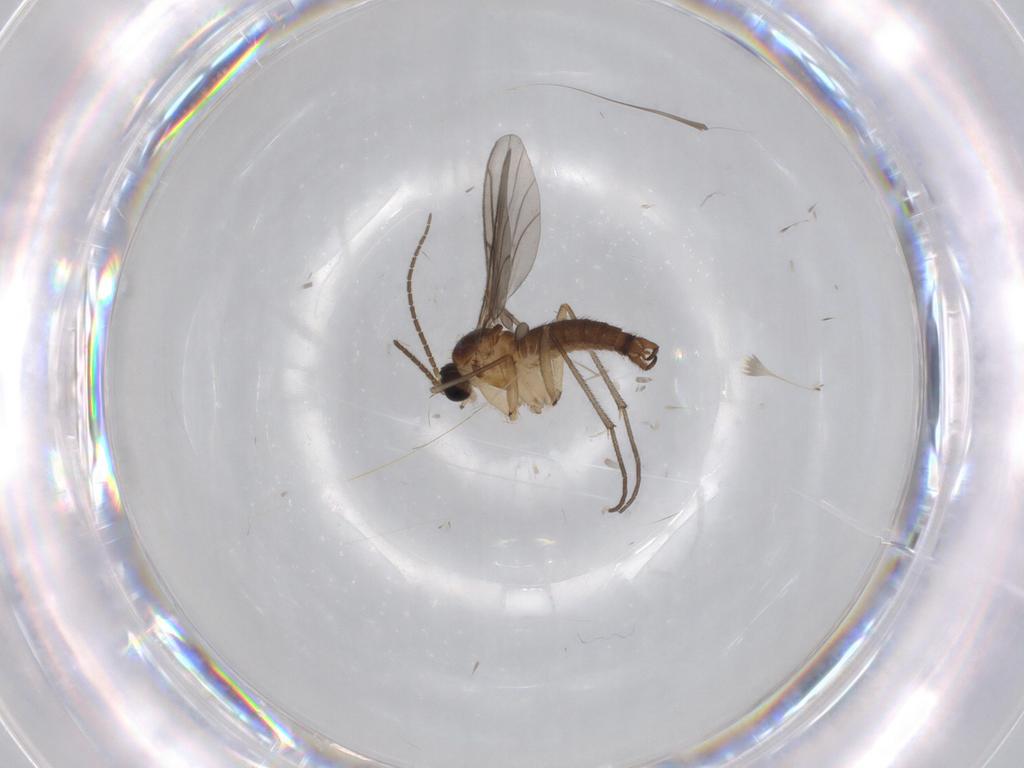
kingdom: Animalia
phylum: Arthropoda
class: Insecta
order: Diptera
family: Sciaridae
